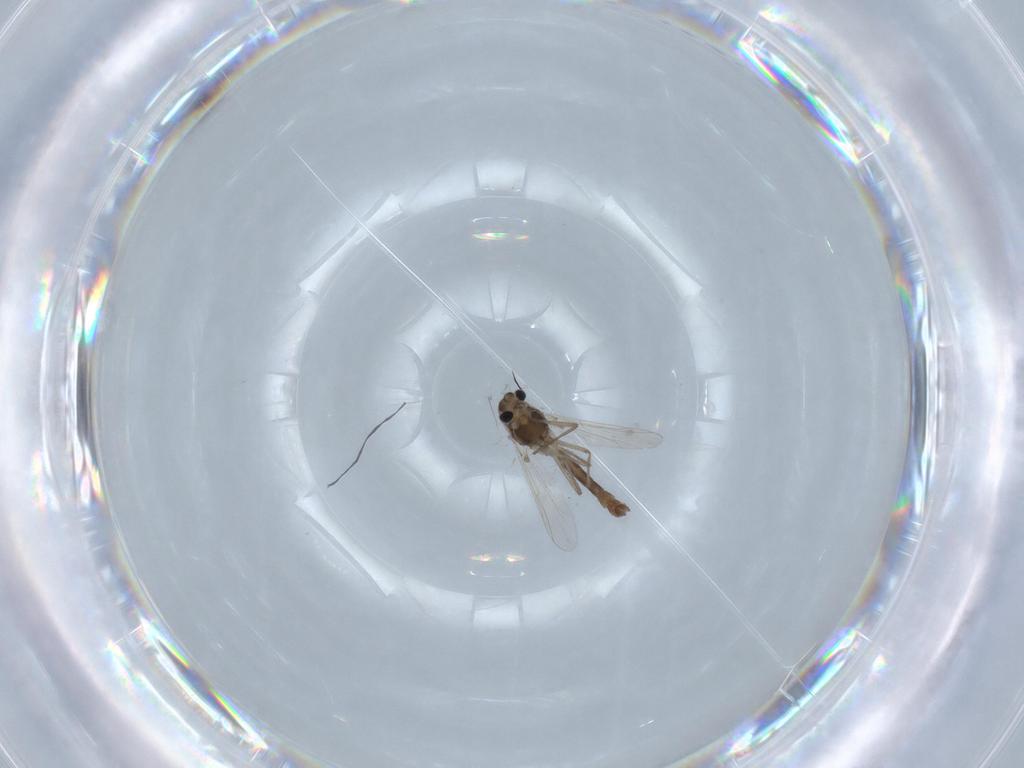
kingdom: Animalia
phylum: Arthropoda
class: Insecta
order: Diptera
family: Chironomidae
